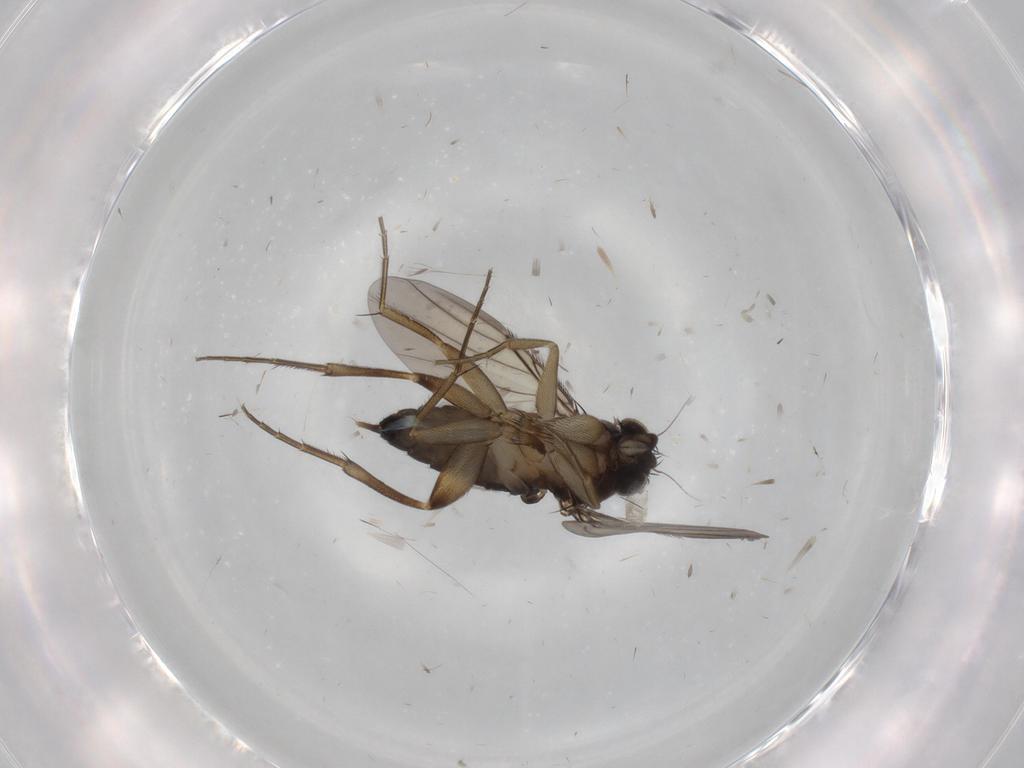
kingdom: Animalia
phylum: Arthropoda
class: Insecta
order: Diptera
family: Phoridae
